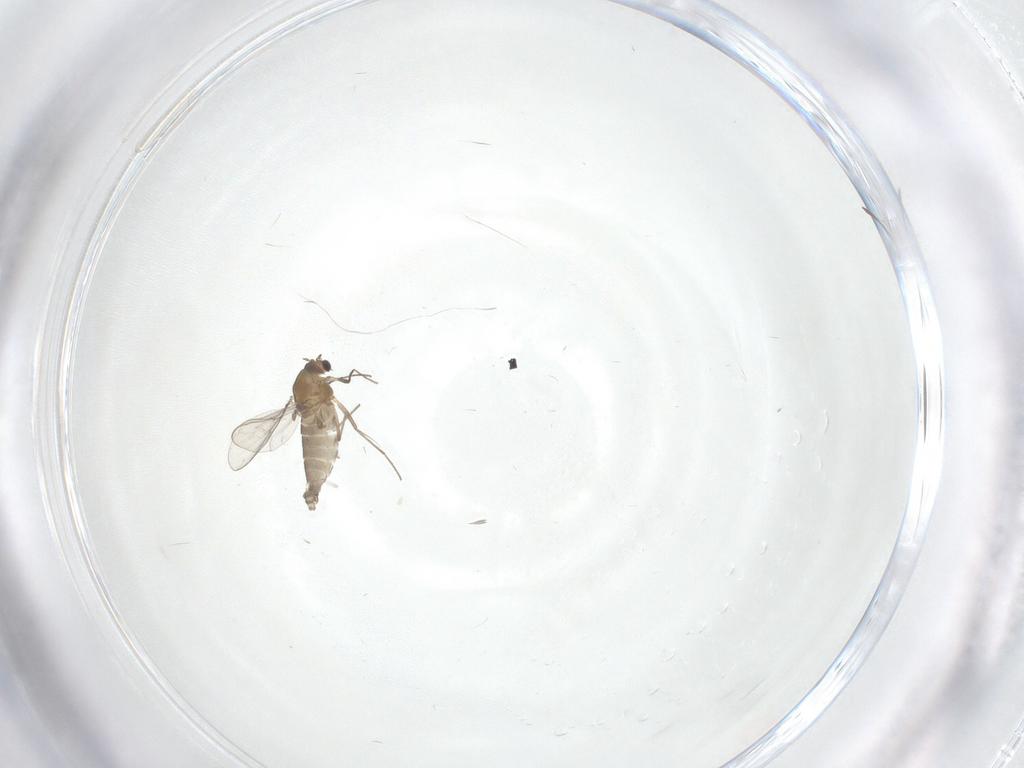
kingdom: Animalia
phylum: Arthropoda
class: Insecta
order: Diptera
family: Chironomidae
